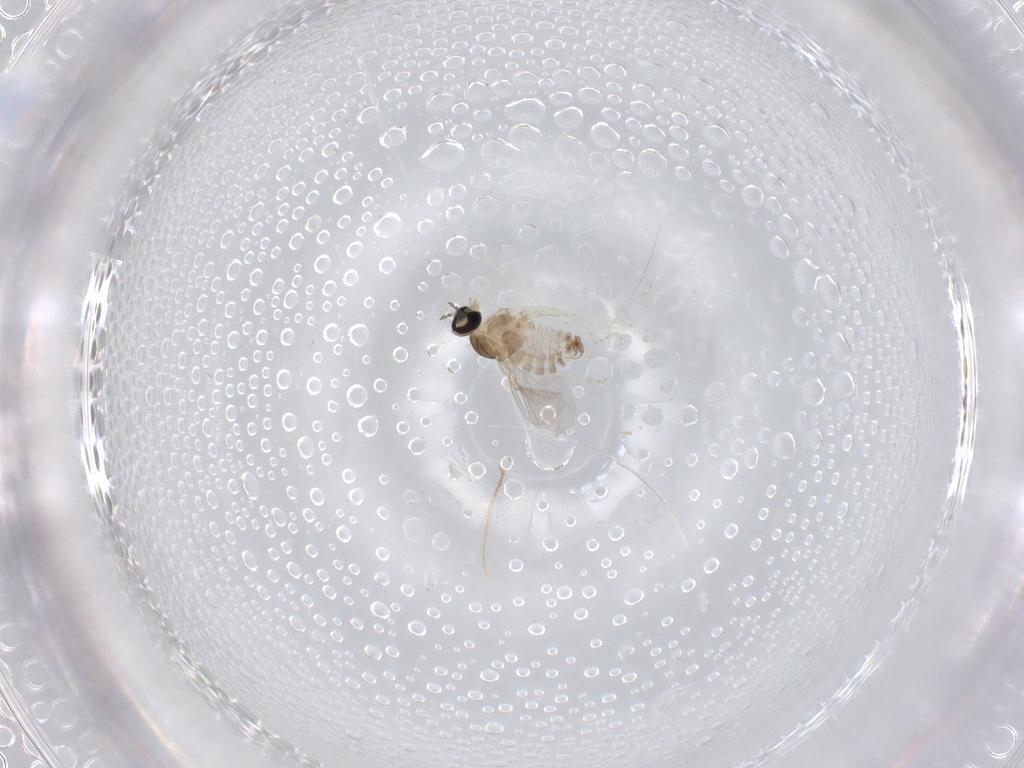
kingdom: Animalia
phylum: Arthropoda
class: Insecta
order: Diptera
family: Cecidomyiidae
